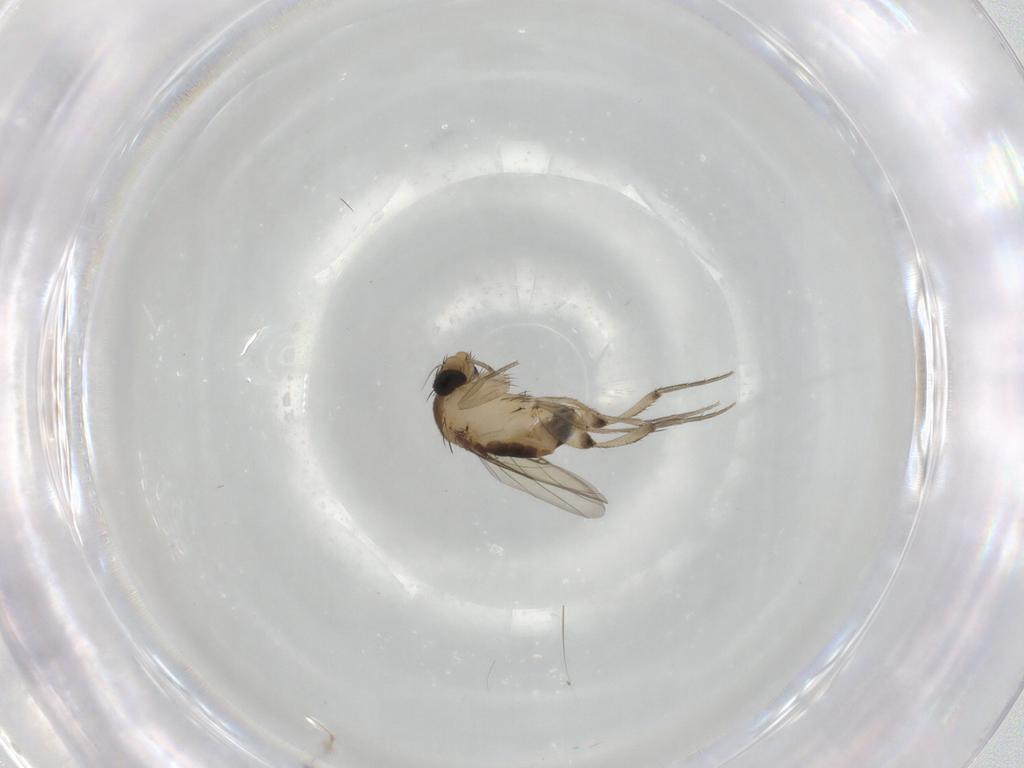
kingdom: Animalia
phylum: Arthropoda
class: Insecta
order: Diptera
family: Phoridae
